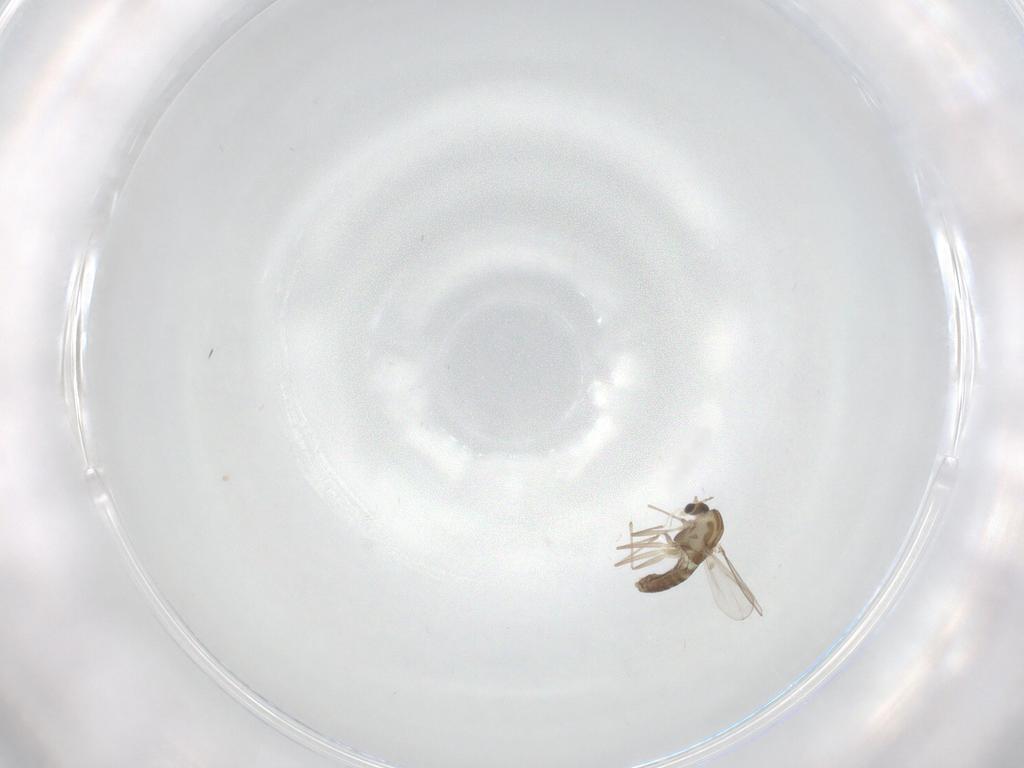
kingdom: Animalia
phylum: Arthropoda
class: Insecta
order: Diptera
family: Chironomidae
